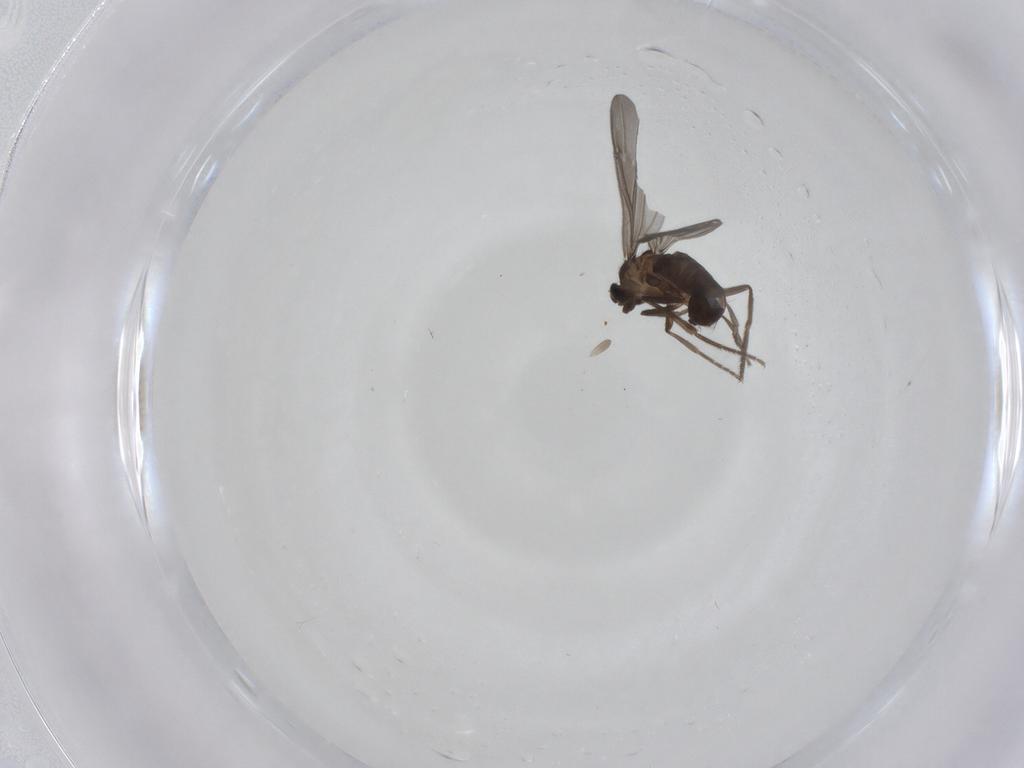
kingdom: Animalia
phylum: Arthropoda
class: Insecta
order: Diptera
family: Phoridae
